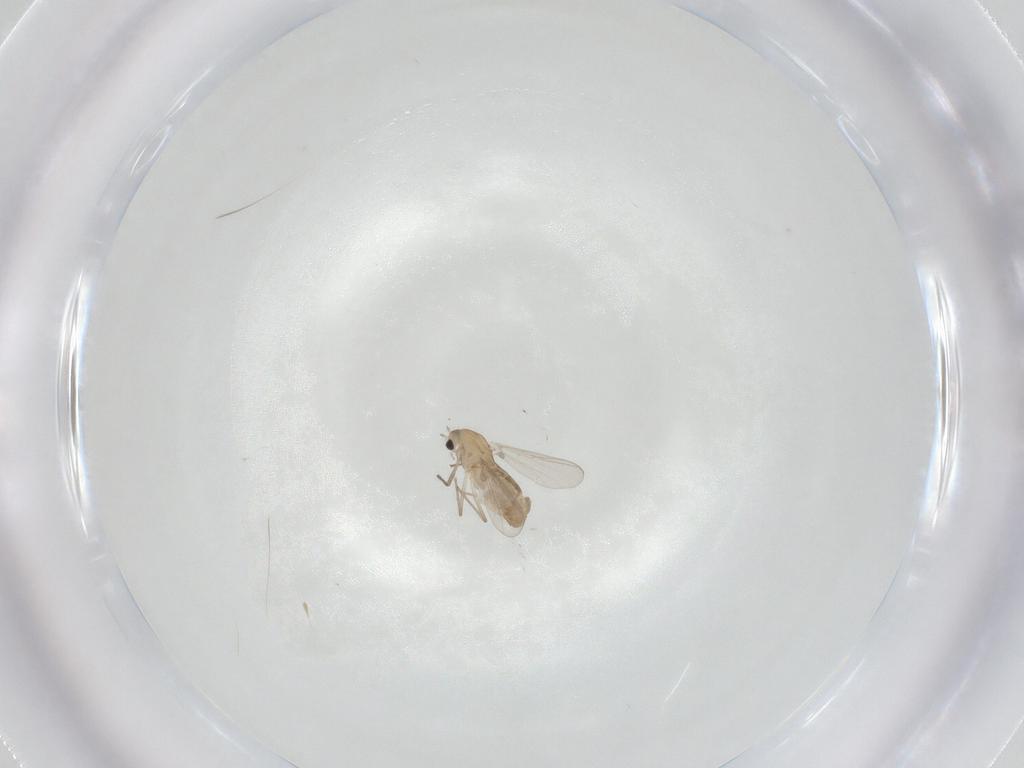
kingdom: Animalia
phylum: Arthropoda
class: Insecta
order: Diptera
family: Chironomidae
